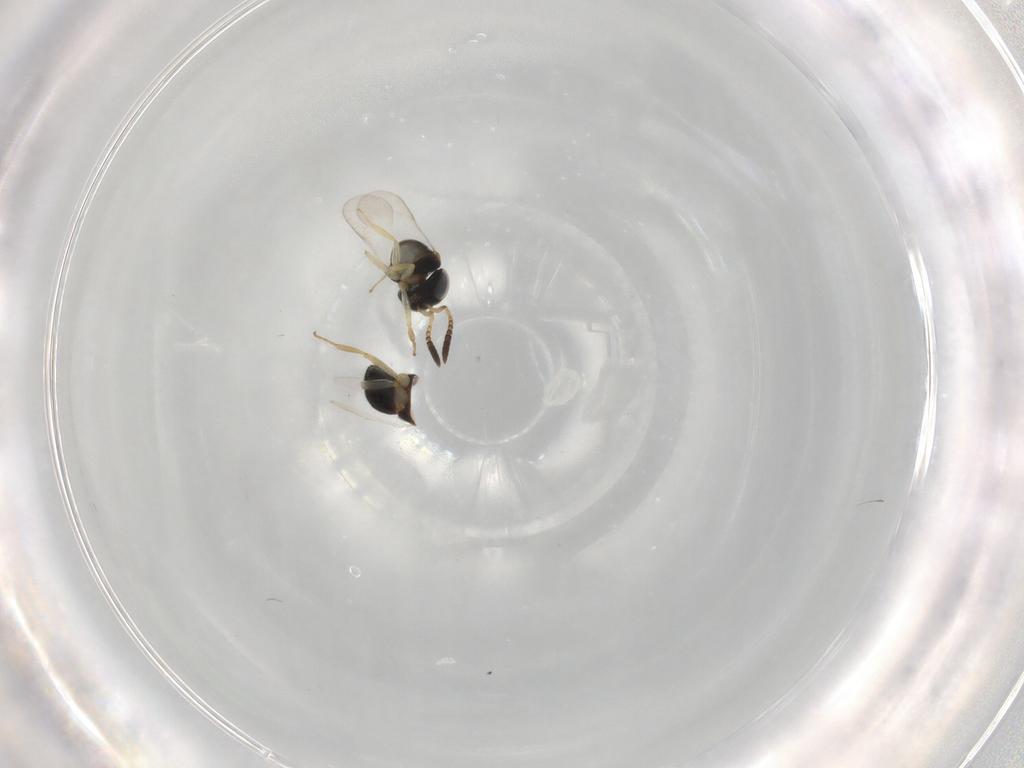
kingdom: Animalia
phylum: Arthropoda
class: Insecta
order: Hymenoptera
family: Scelionidae
